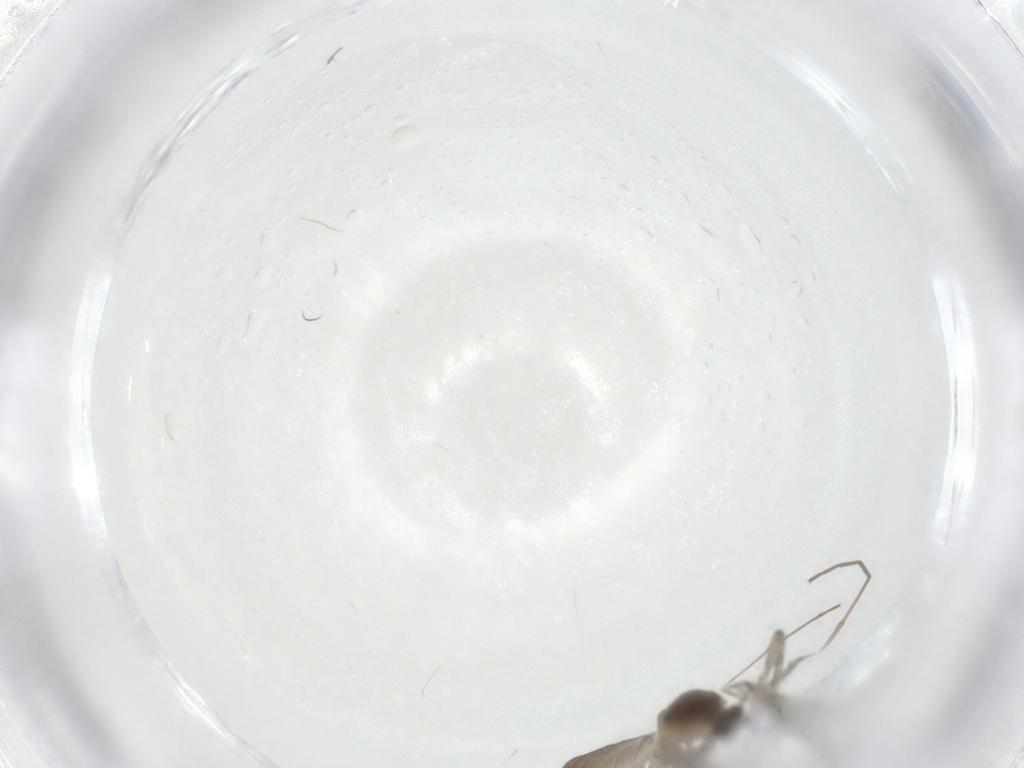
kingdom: Animalia
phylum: Arthropoda
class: Insecta
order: Diptera
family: Cecidomyiidae
